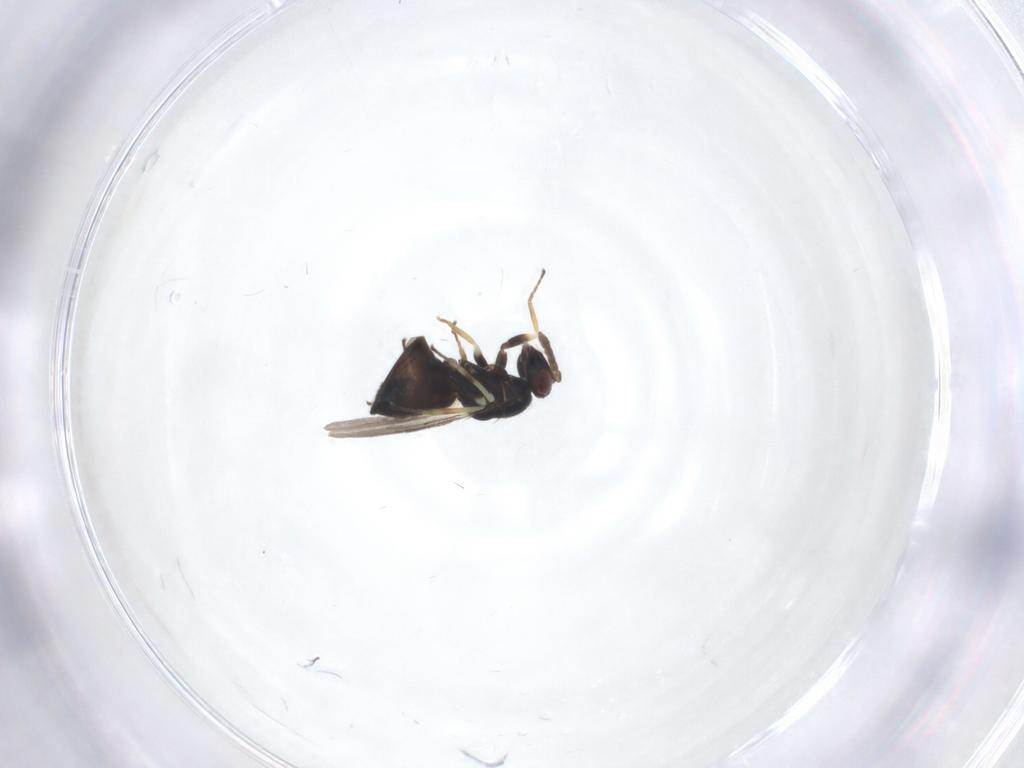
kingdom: Animalia
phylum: Arthropoda
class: Insecta
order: Hymenoptera
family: Eulophidae
